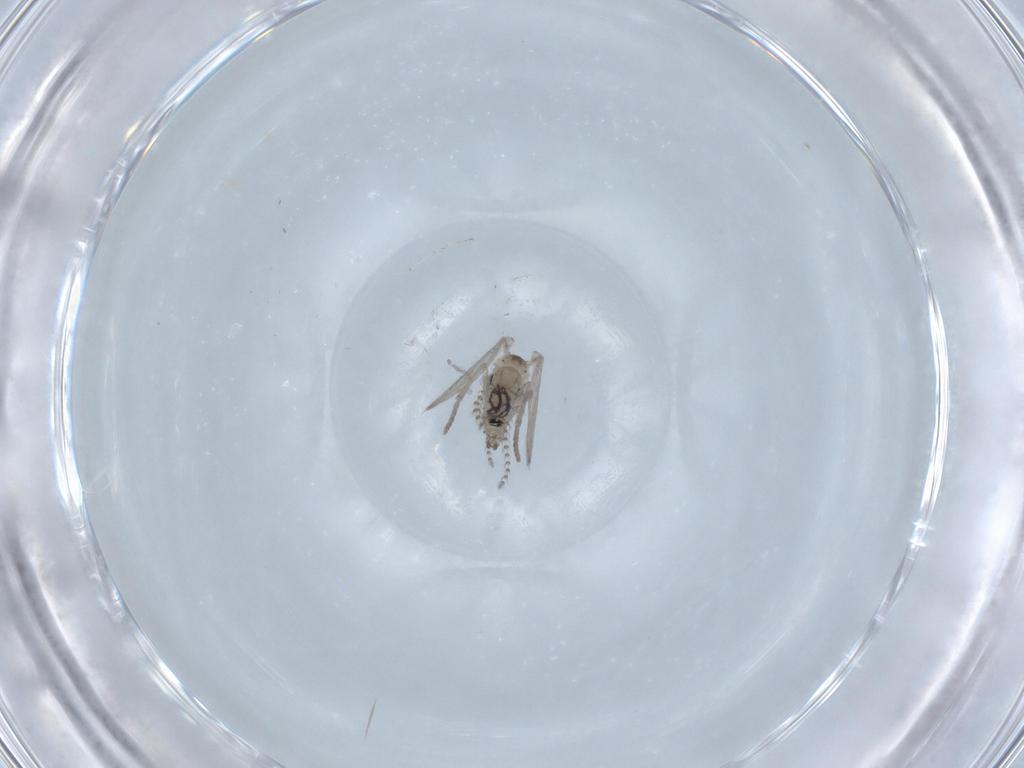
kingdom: Animalia
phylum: Arthropoda
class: Insecta
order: Diptera
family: Psychodidae
